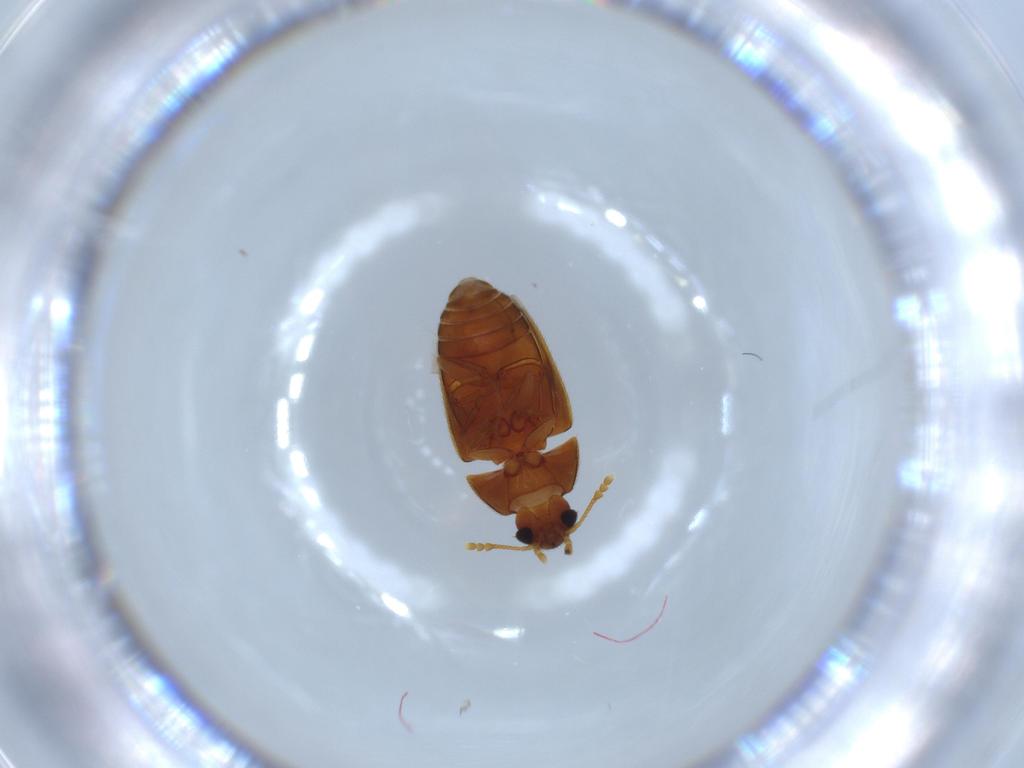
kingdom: Animalia
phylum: Arthropoda
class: Insecta
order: Coleoptera
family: Mycetophagidae
